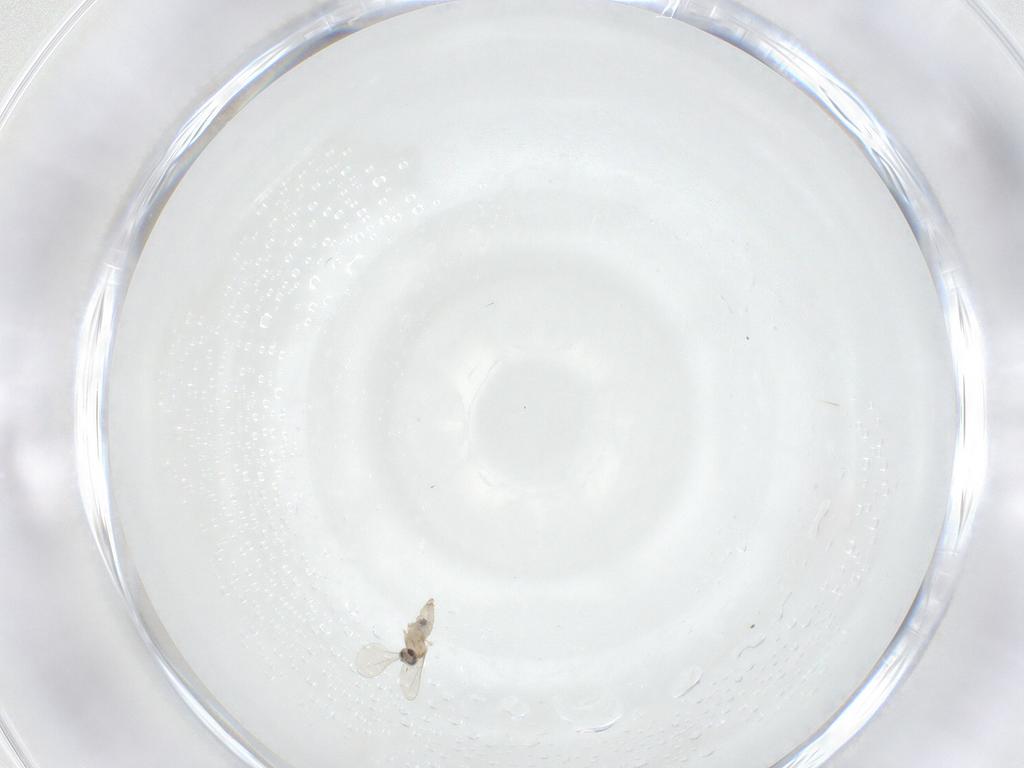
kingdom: Animalia
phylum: Arthropoda
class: Insecta
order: Diptera
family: Cecidomyiidae
